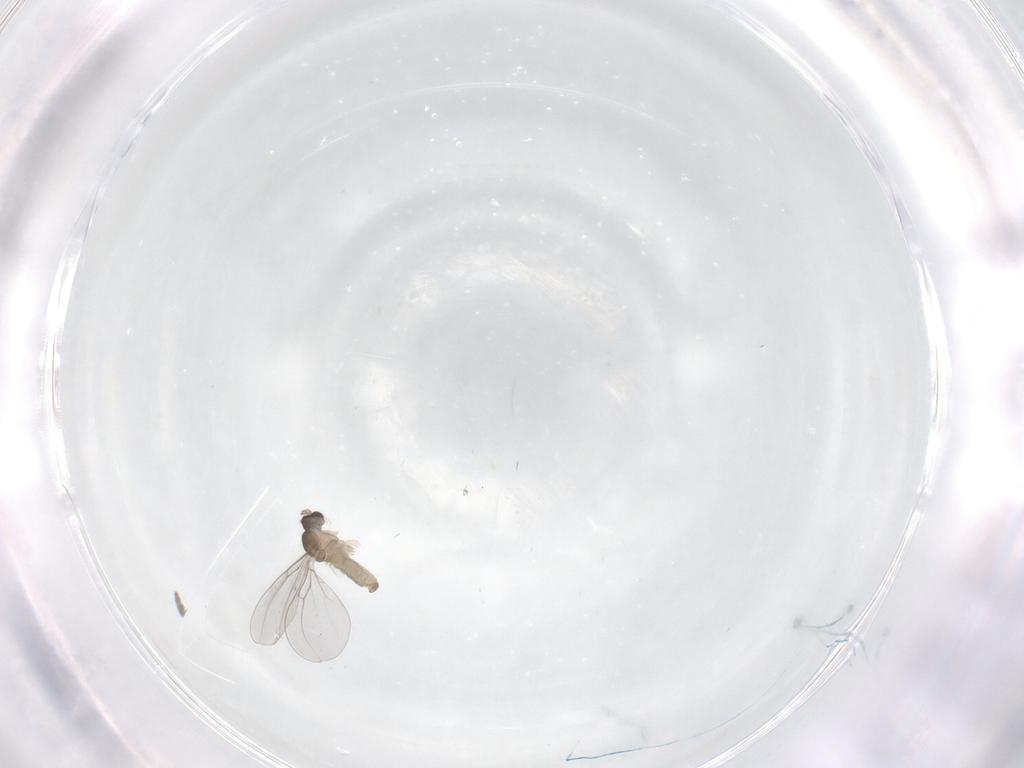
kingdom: Animalia
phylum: Arthropoda
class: Insecta
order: Diptera
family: Cecidomyiidae
